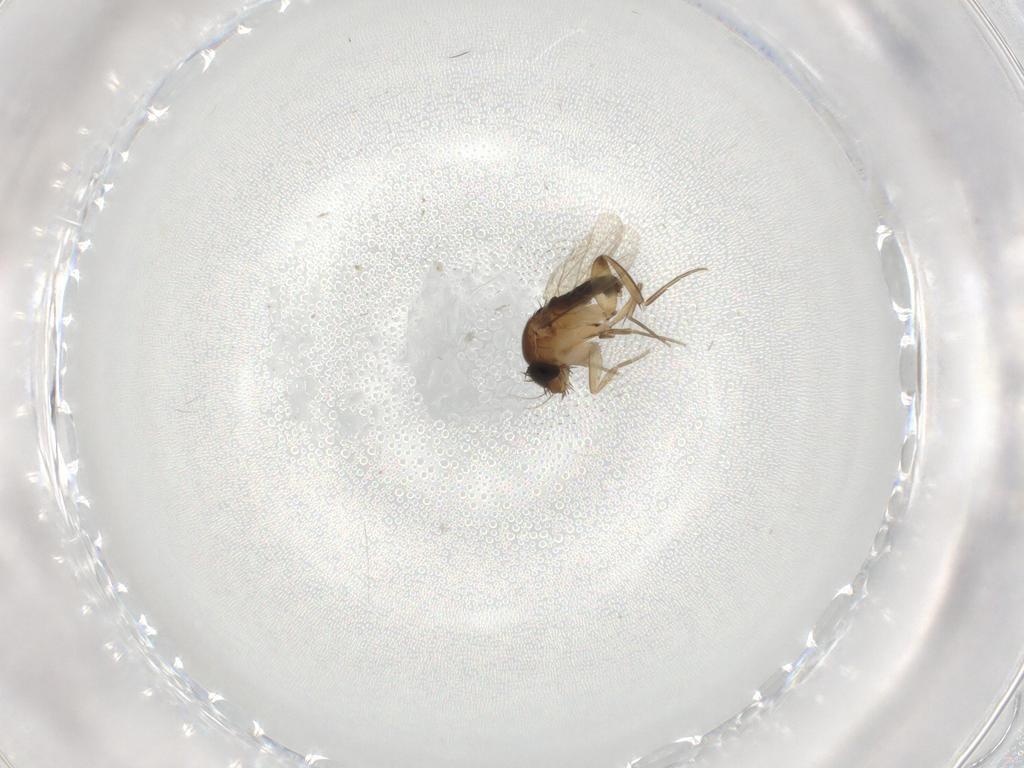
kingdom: Animalia
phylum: Arthropoda
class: Insecta
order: Diptera
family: Phoridae
